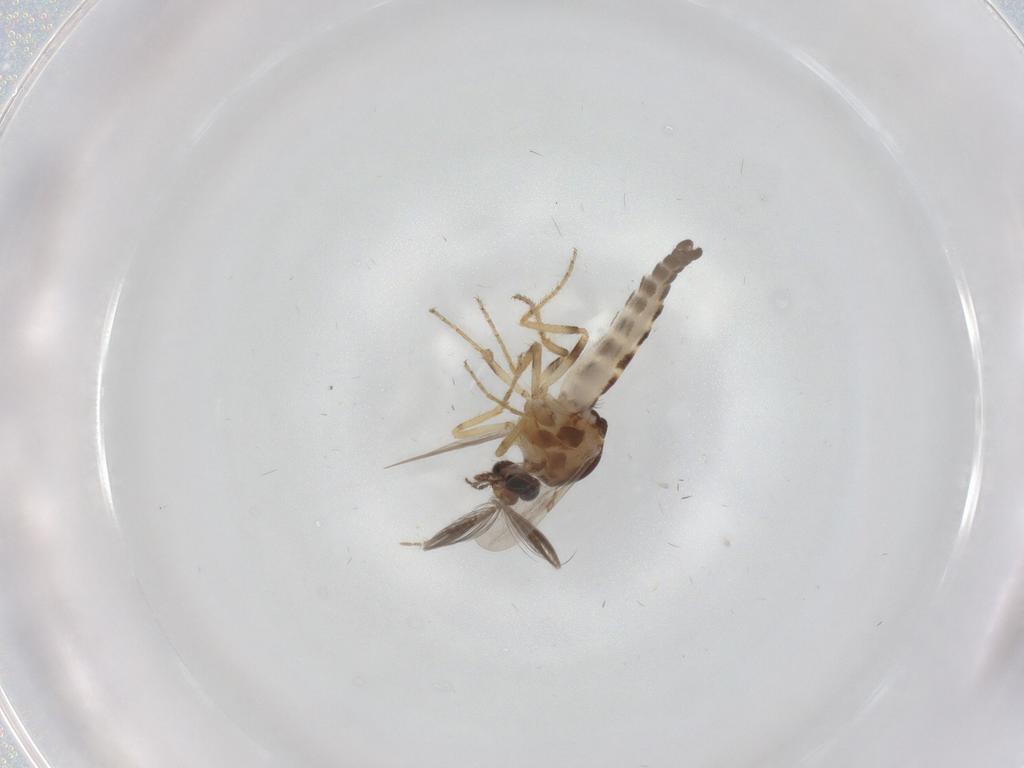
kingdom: Animalia
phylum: Arthropoda
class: Insecta
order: Diptera
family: Ceratopogonidae
